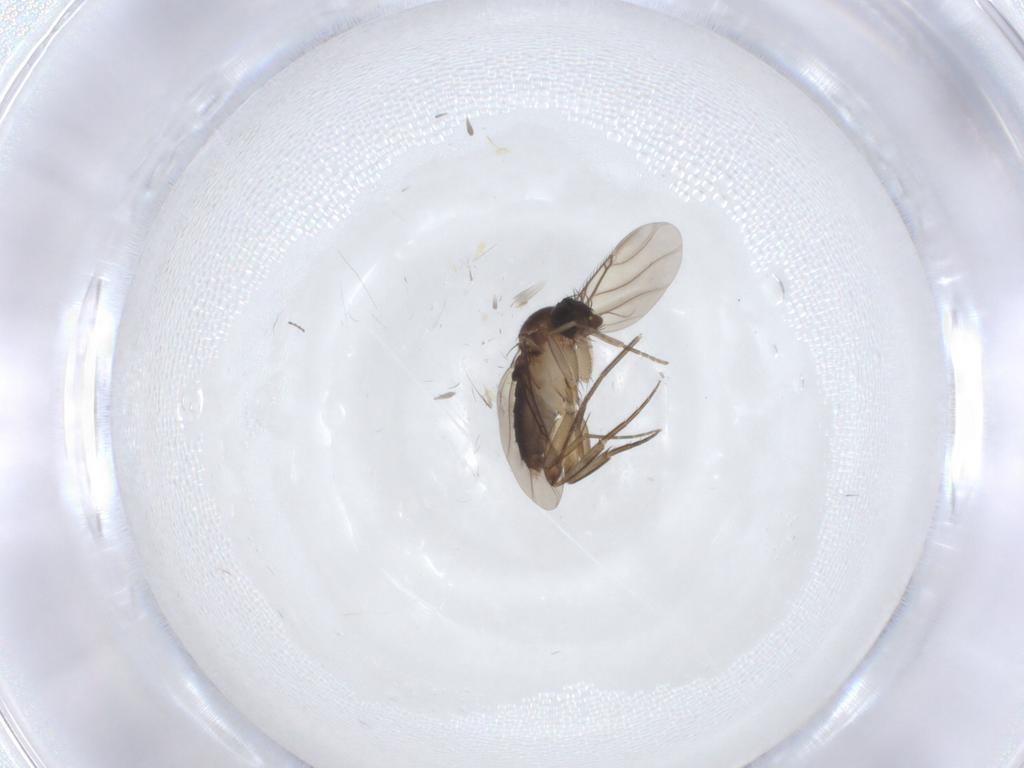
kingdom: Animalia
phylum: Arthropoda
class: Insecta
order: Diptera
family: Phoridae
